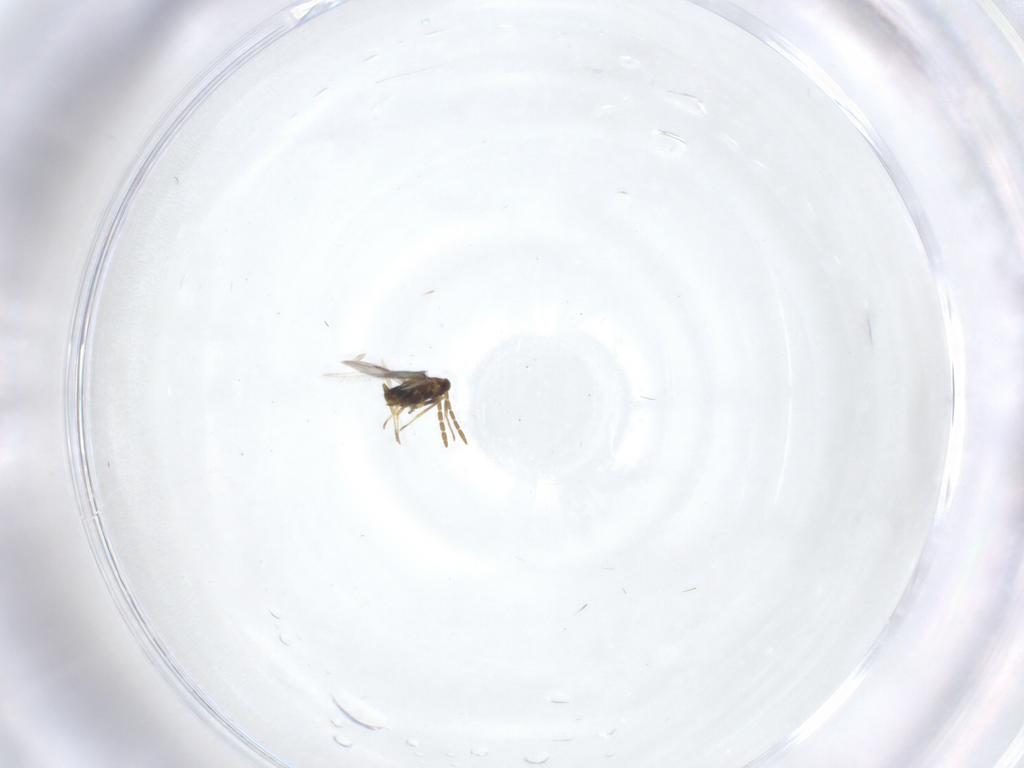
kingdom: Animalia
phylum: Arthropoda
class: Insecta
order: Hymenoptera
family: Aphelinidae
